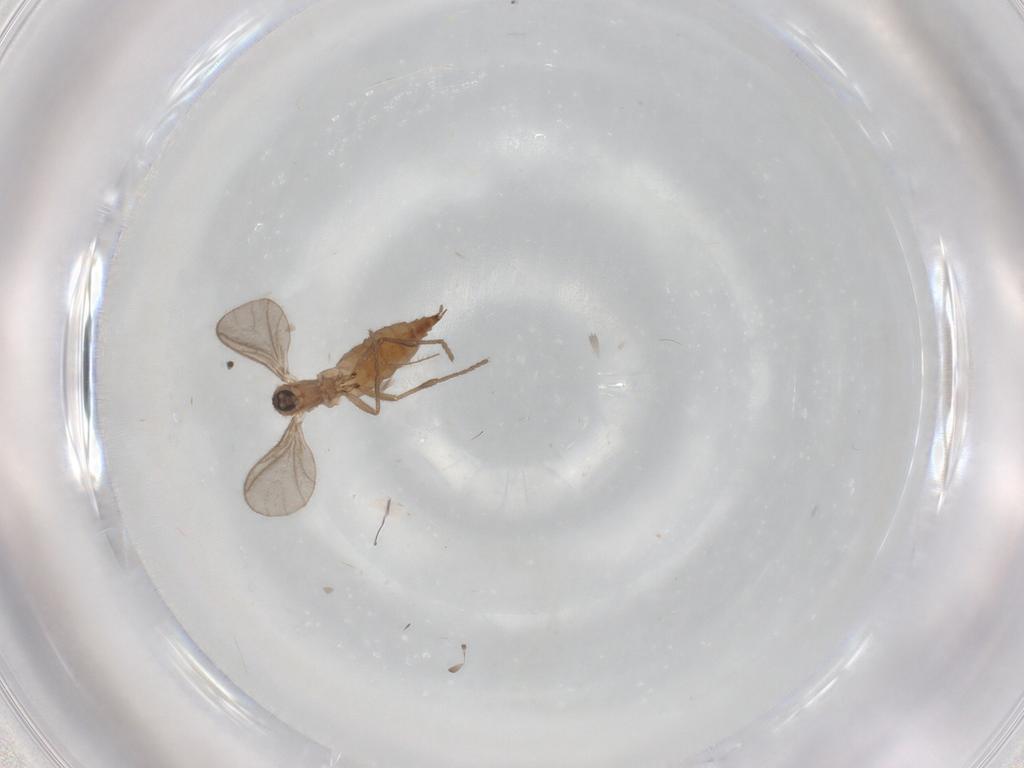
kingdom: Animalia
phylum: Arthropoda
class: Insecta
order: Diptera
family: Sciaridae
